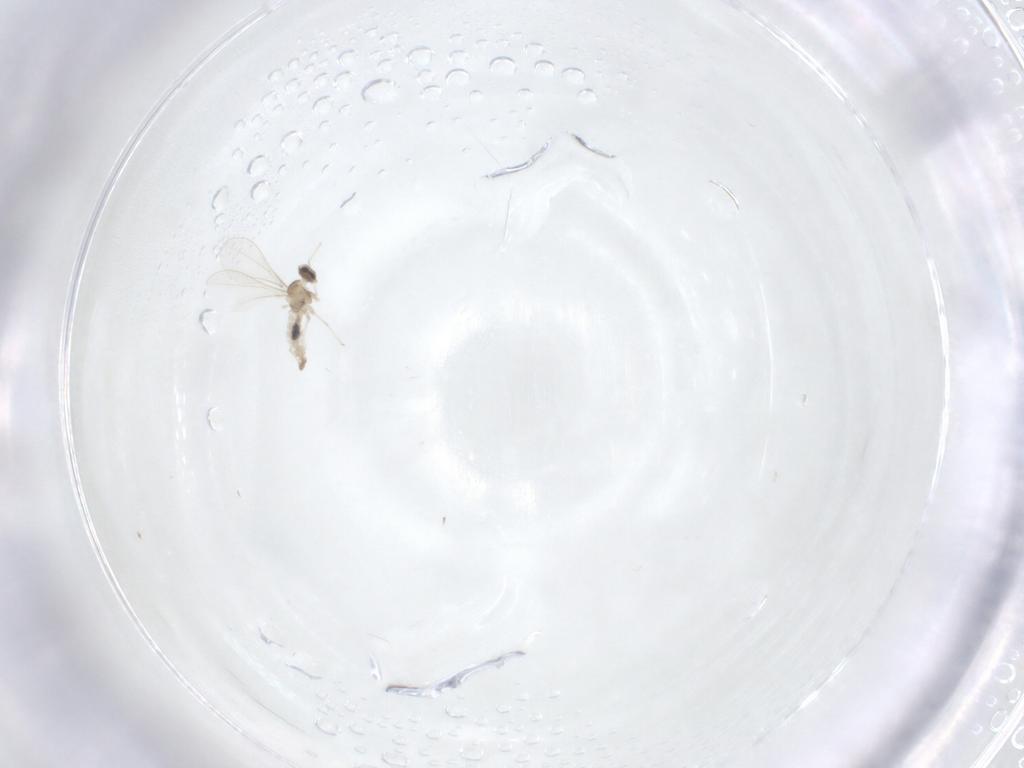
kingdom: Animalia
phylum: Arthropoda
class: Insecta
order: Diptera
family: Cecidomyiidae
